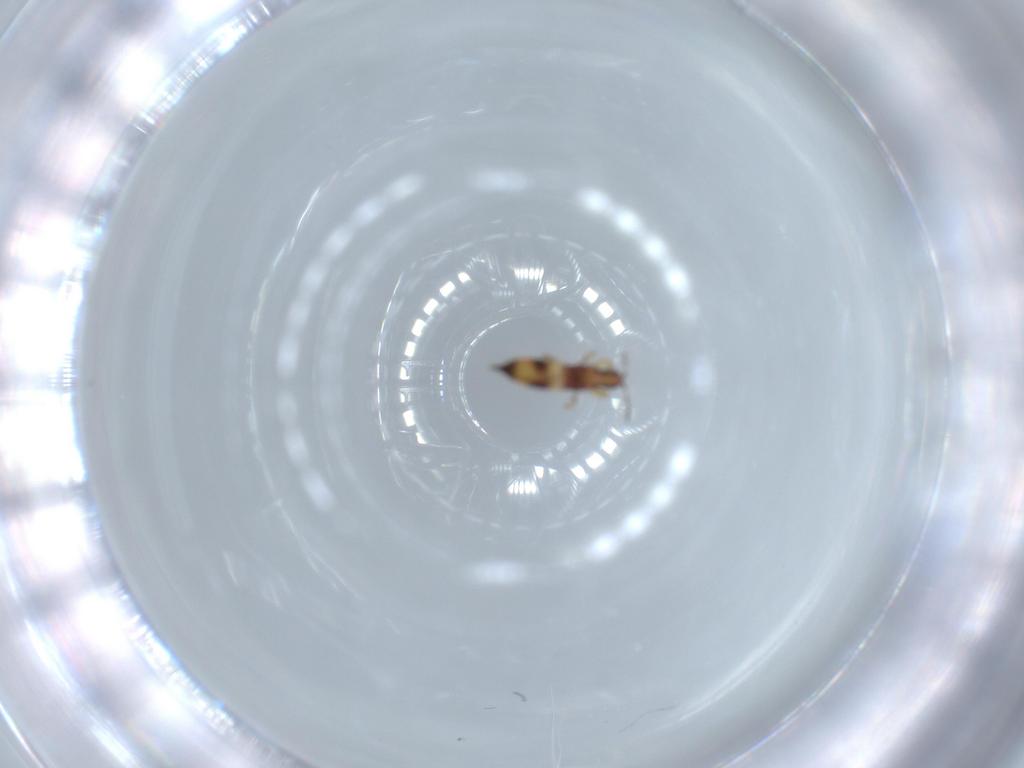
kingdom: Animalia
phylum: Arthropoda
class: Insecta
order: Thysanoptera
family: Phlaeothripidae
